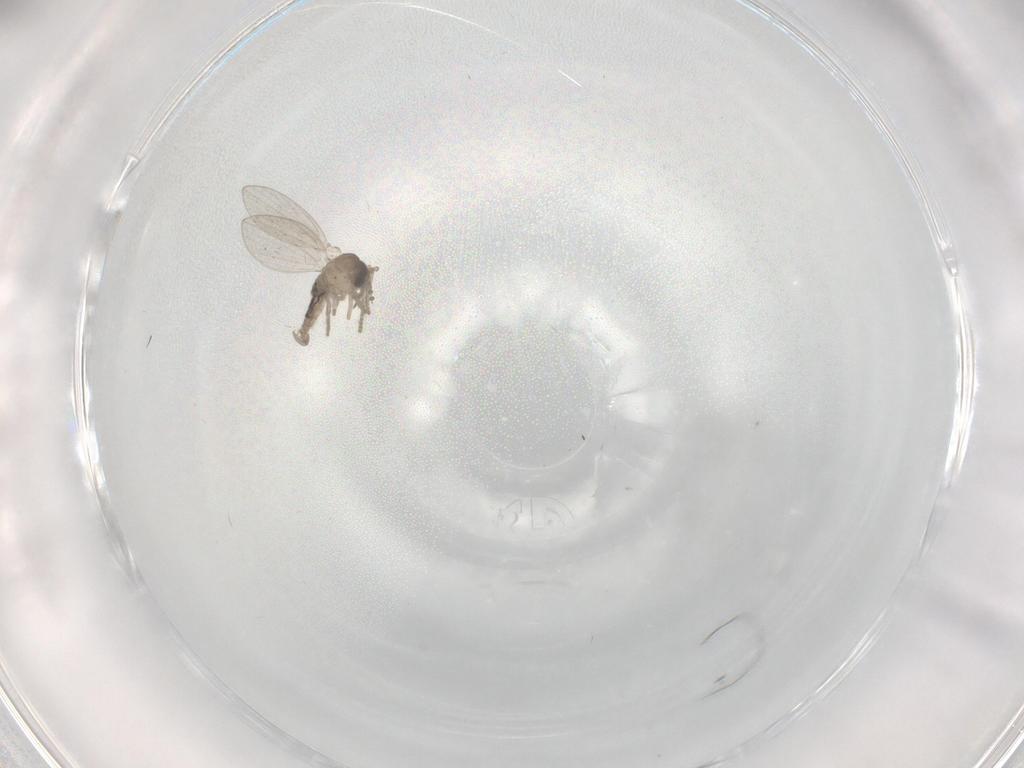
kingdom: Animalia
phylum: Arthropoda
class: Insecta
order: Diptera
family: Psychodidae
